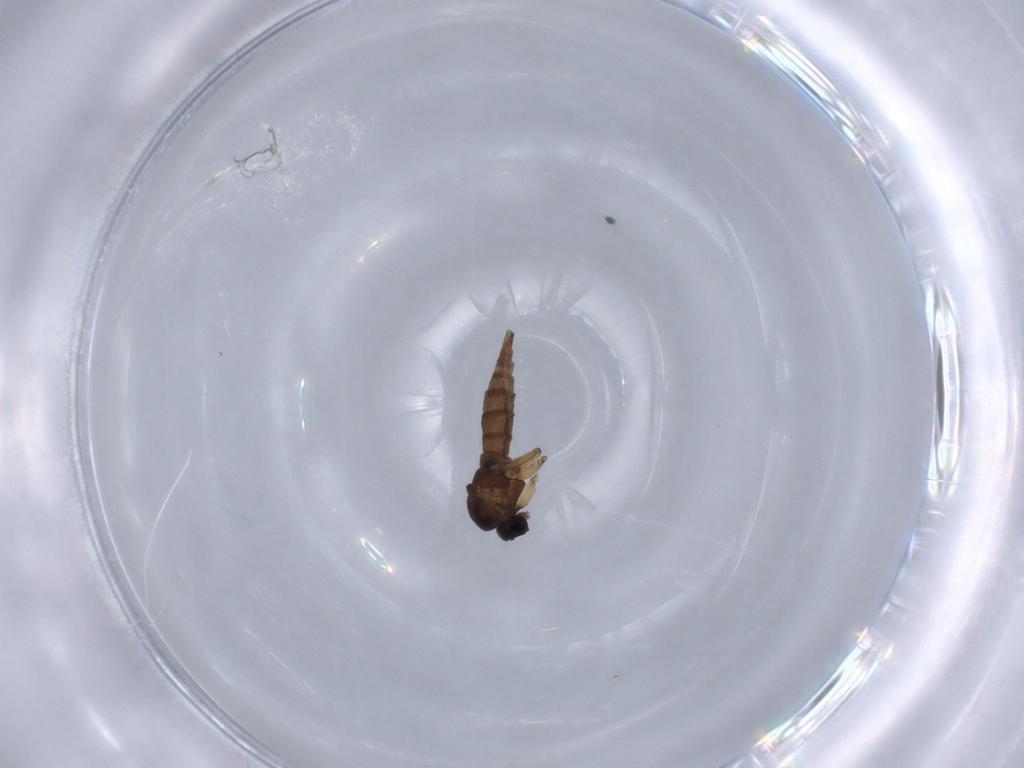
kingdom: Animalia
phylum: Arthropoda
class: Insecta
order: Diptera
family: Sciaridae
